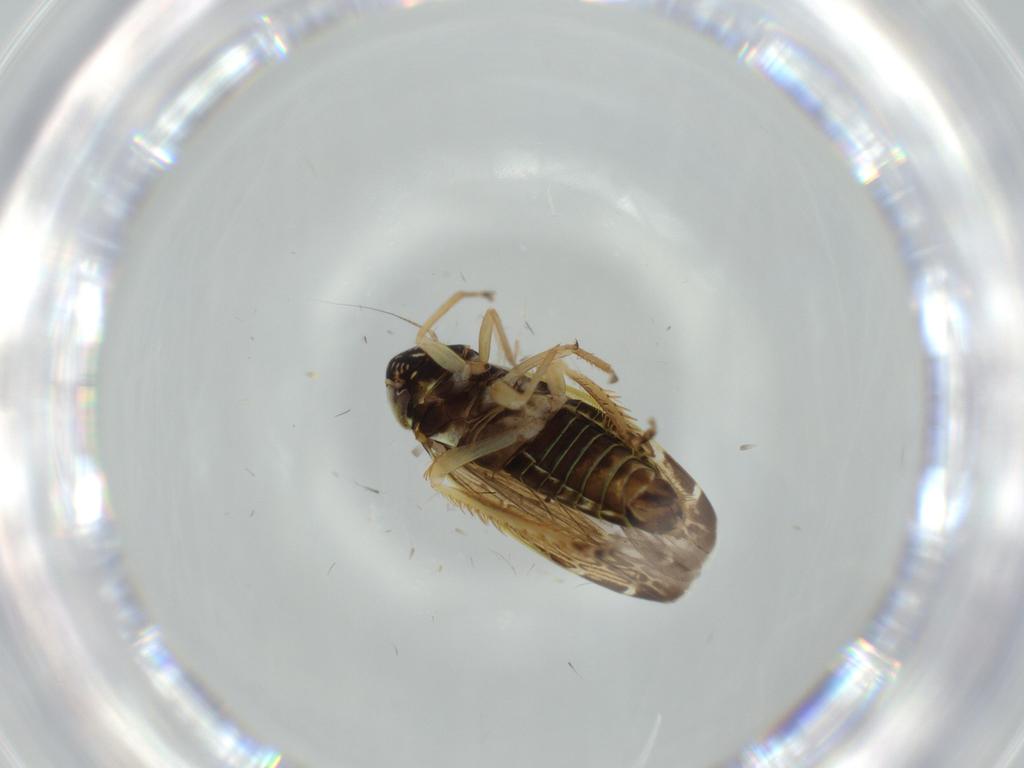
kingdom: Animalia
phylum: Arthropoda
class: Insecta
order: Hemiptera
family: Cicadellidae
